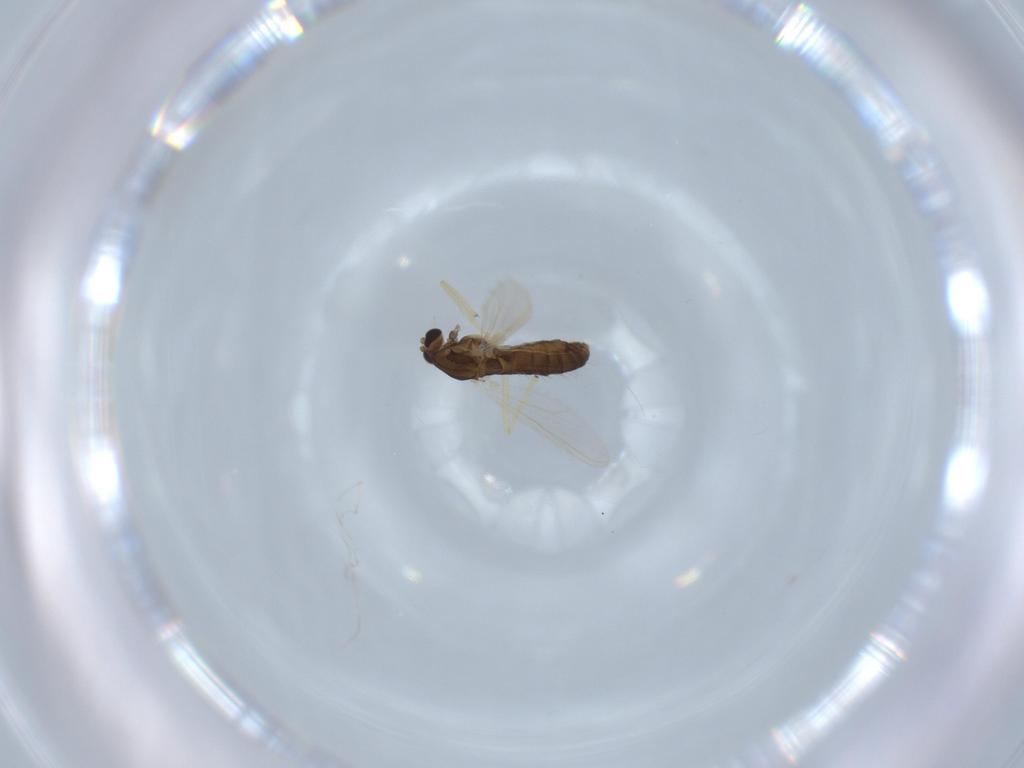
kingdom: Animalia
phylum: Arthropoda
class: Insecta
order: Diptera
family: Chironomidae
